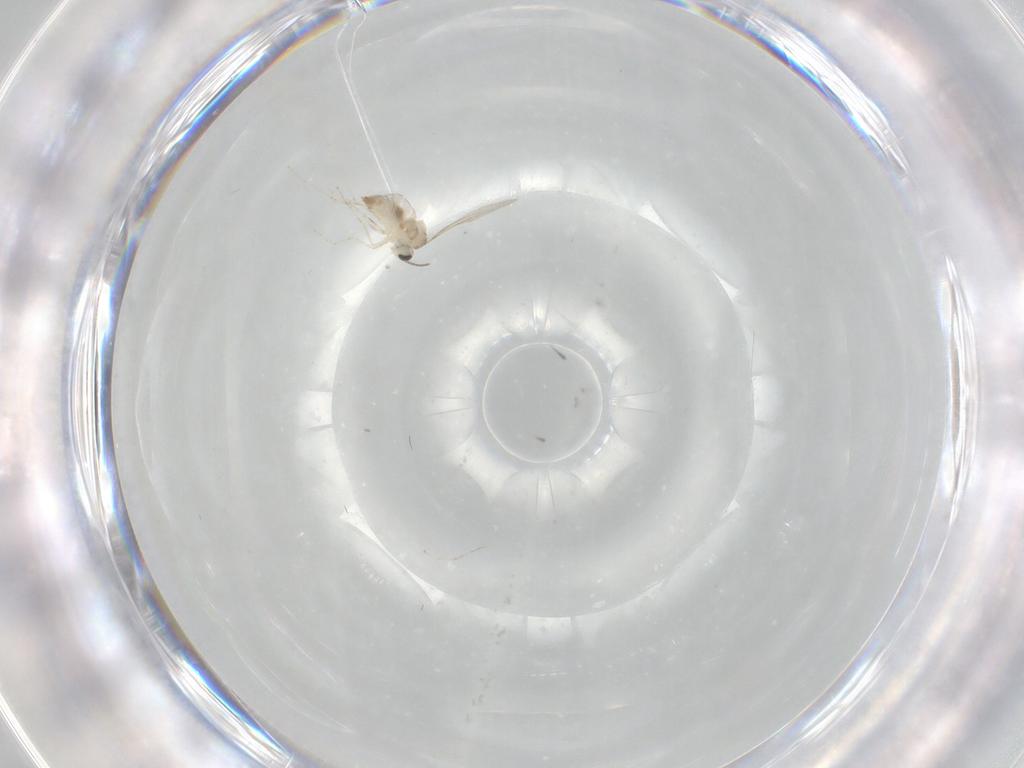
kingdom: Animalia
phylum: Arthropoda
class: Insecta
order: Diptera
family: Cecidomyiidae
